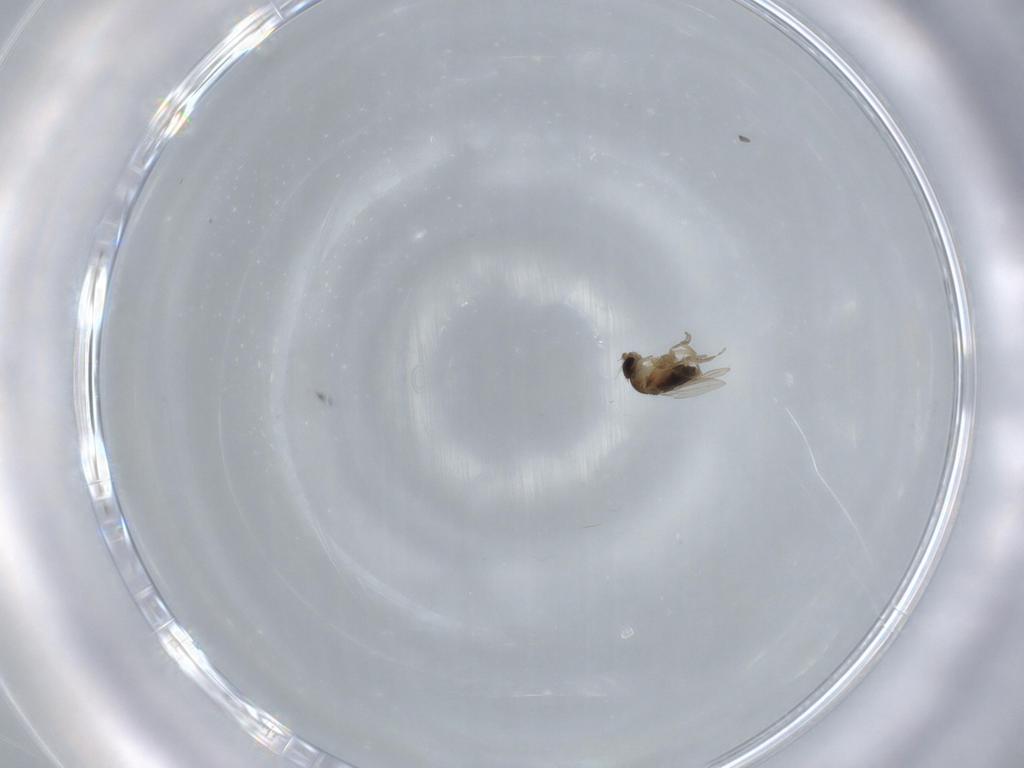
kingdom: Animalia
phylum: Arthropoda
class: Insecta
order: Diptera
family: Phoridae
